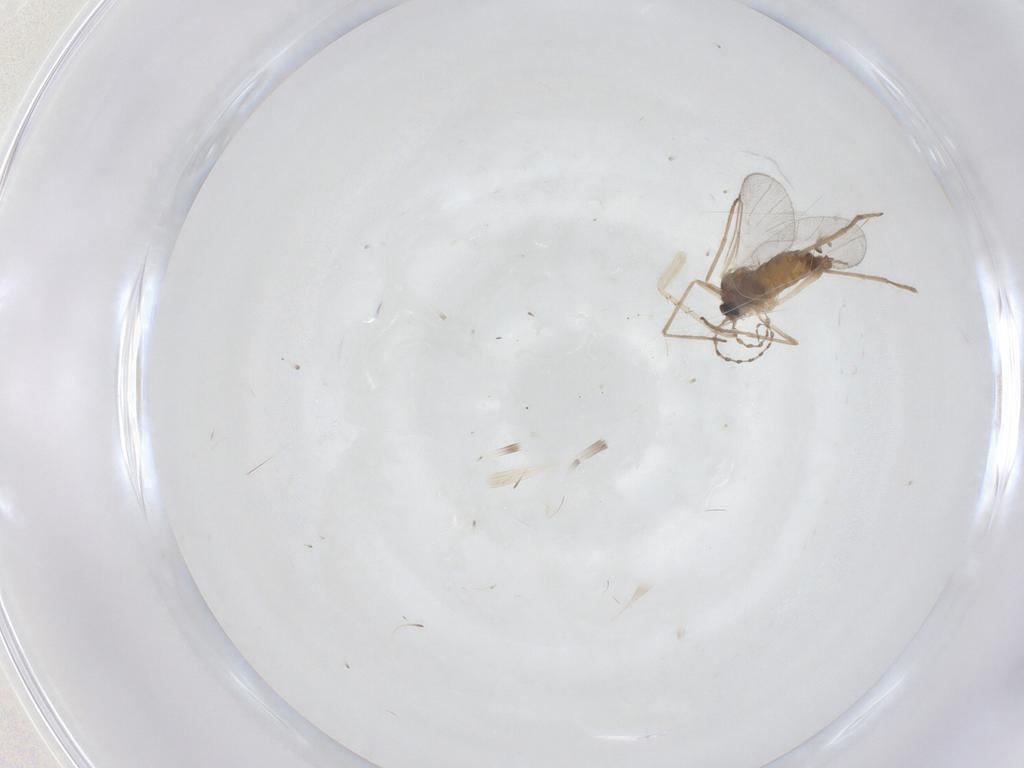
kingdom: Animalia
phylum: Arthropoda
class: Insecta
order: Diptera
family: Cecidomyiidae
